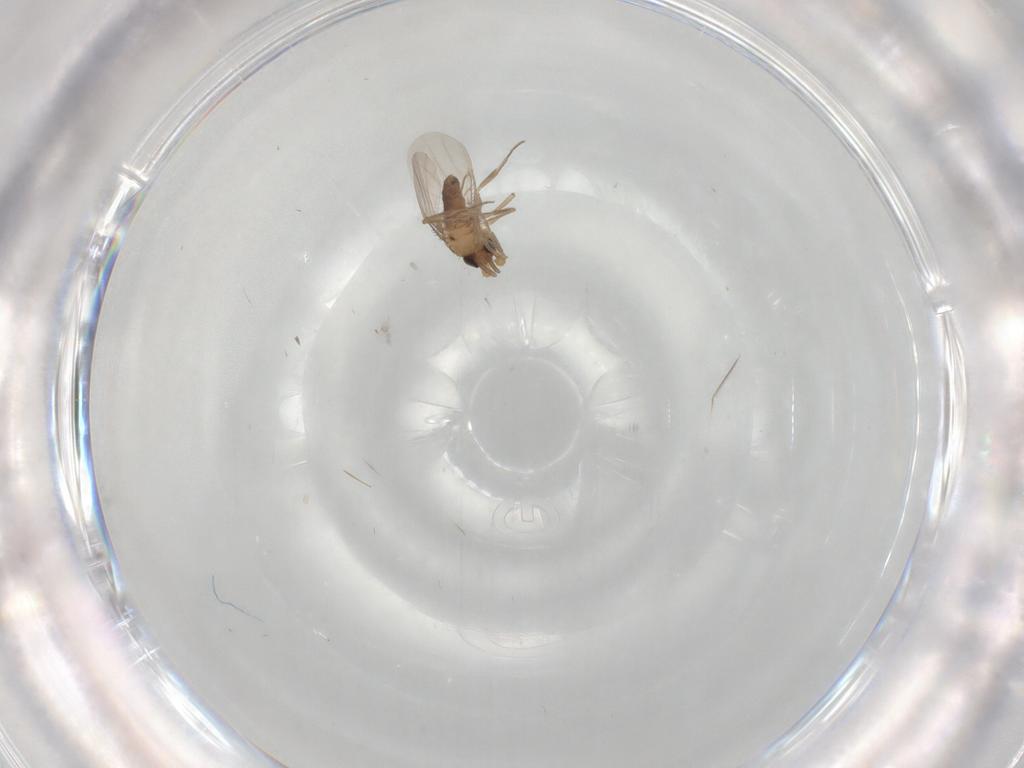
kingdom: Animalia
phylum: Arthropoda
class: Insecta
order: Diptera
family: Phoridae
